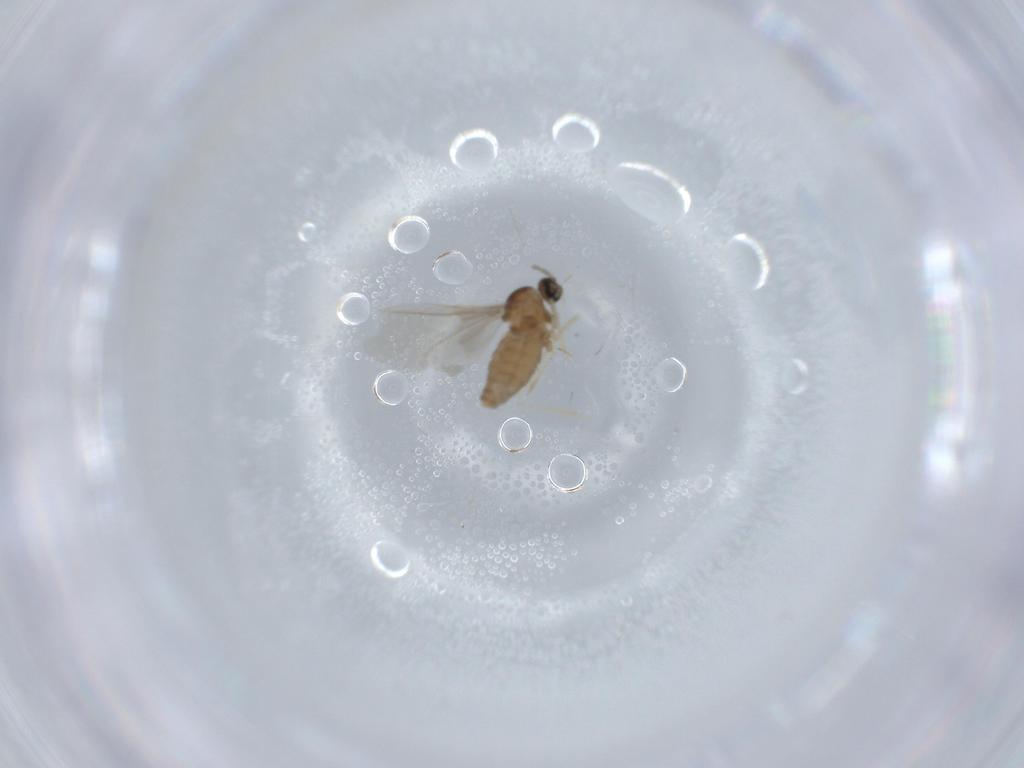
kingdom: Animalia
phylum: Arthropoda
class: Insecta
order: Diptera
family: Cecidomyiidae
